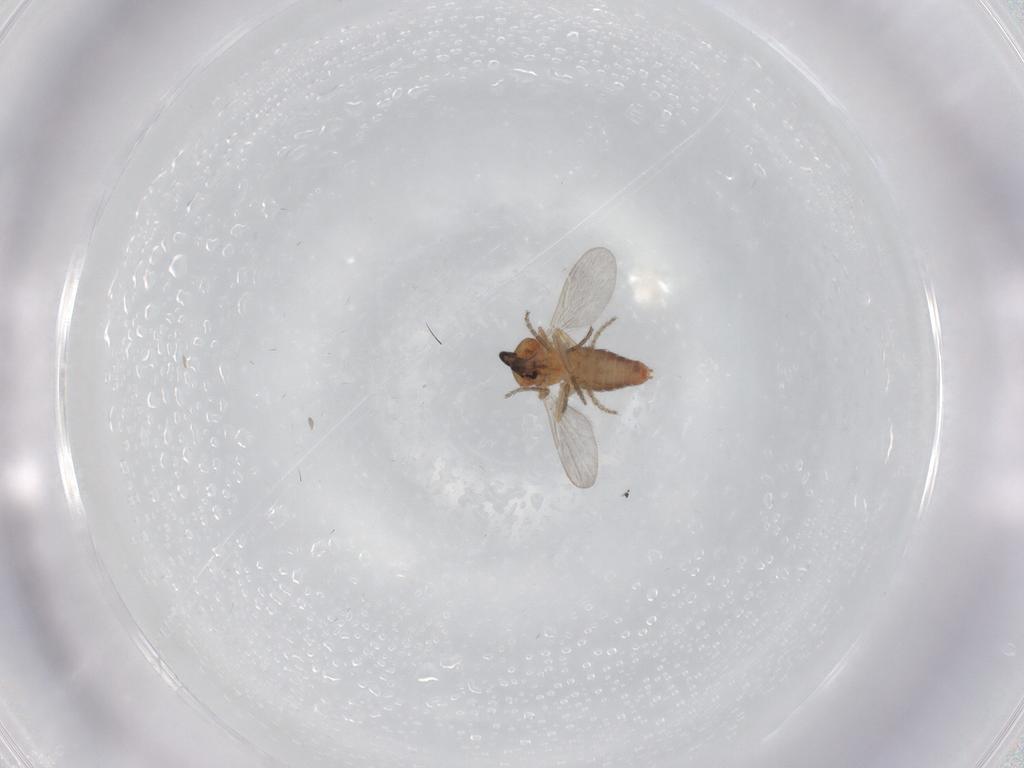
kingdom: Animalia
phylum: Arthropoda
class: Insecta
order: Diptera
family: Ceratopogonidae
